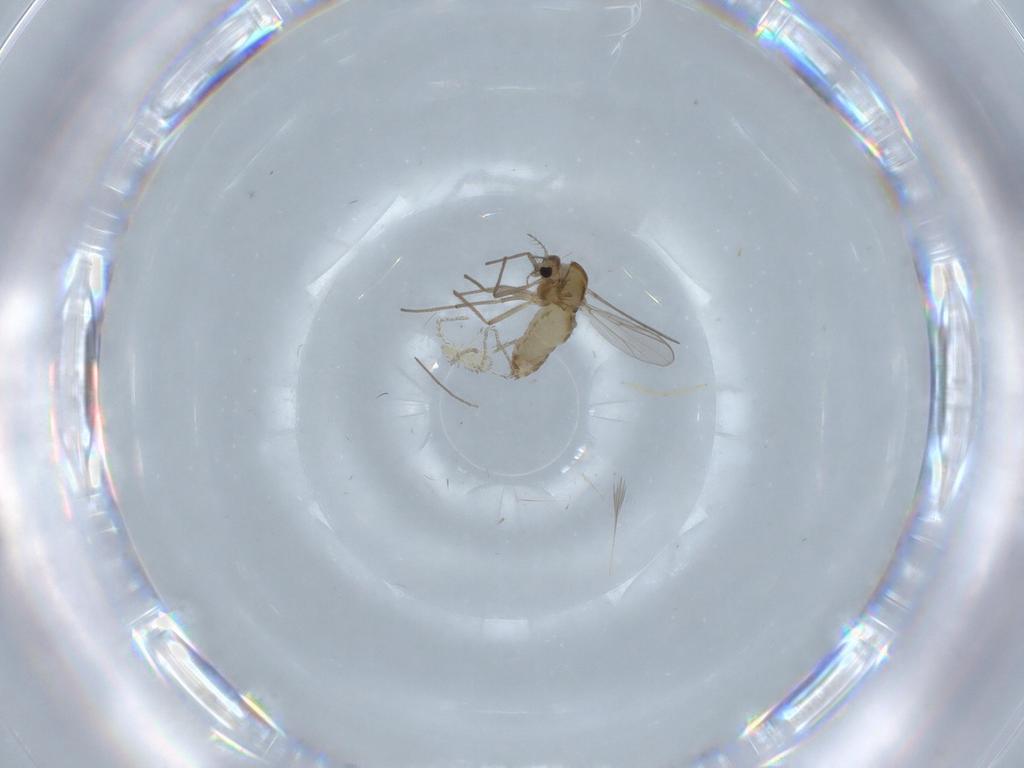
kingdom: Animalia
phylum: Arthropoda
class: Insecta
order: Diptera
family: Chironomidae
